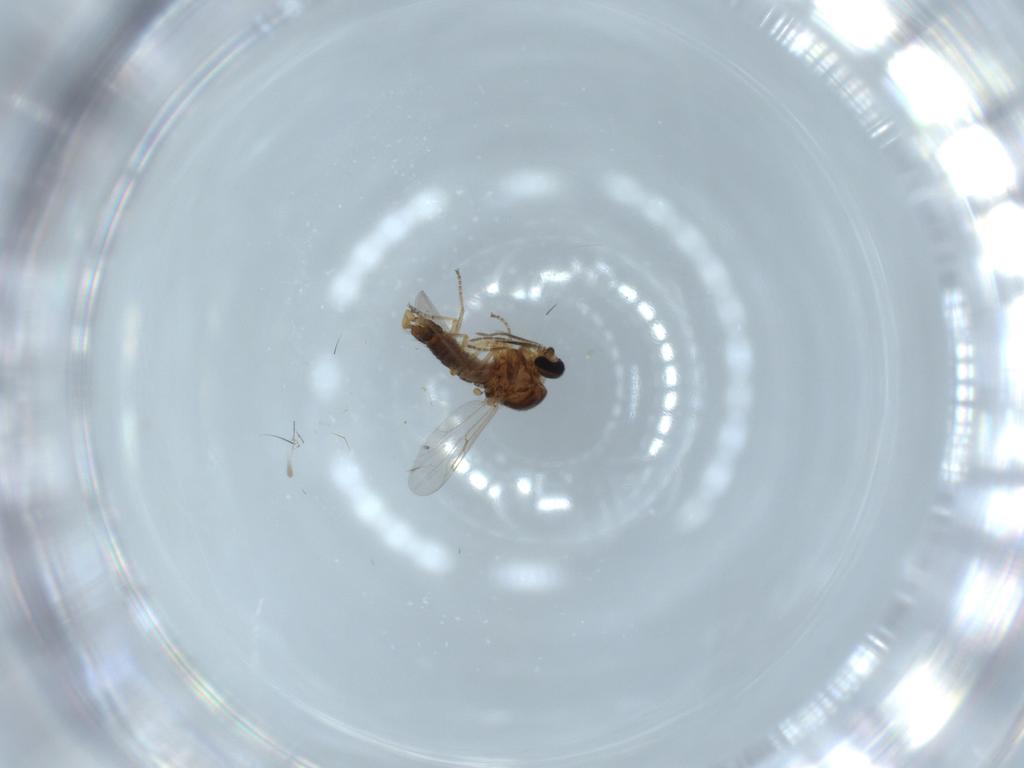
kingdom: Animalia
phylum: Arthropoda
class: Insecta
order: Diptera
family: Ceratopogonidae
